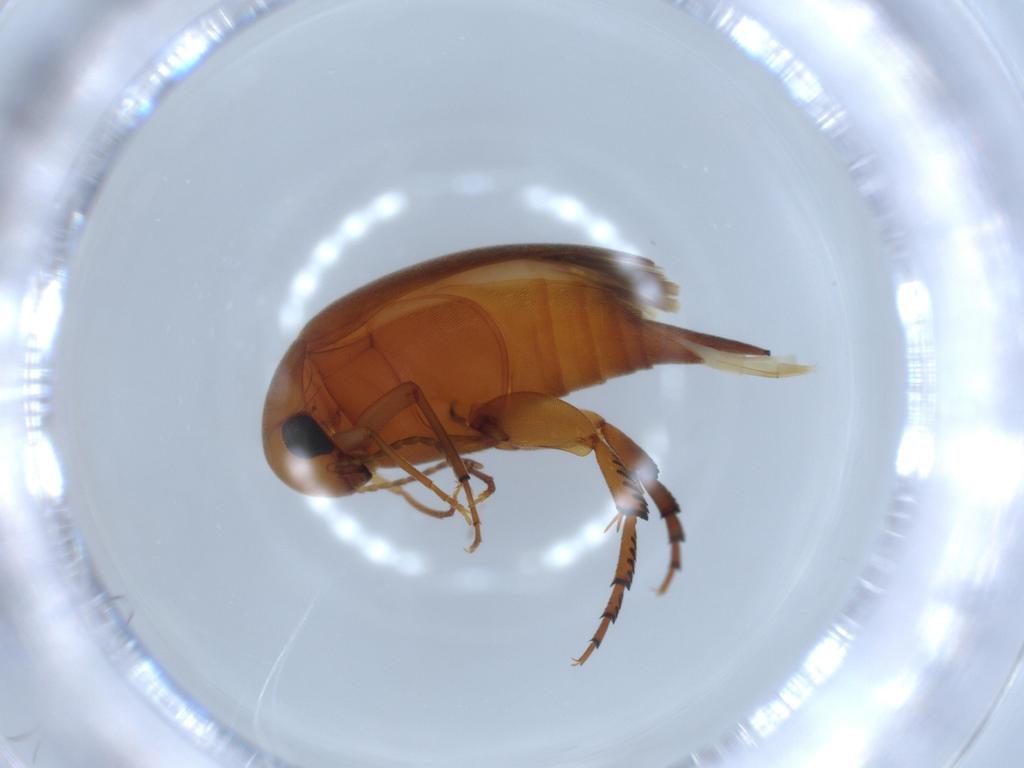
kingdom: Animalia
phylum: Arthropoda
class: Insecta
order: Coleoptera
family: Mordellidae
